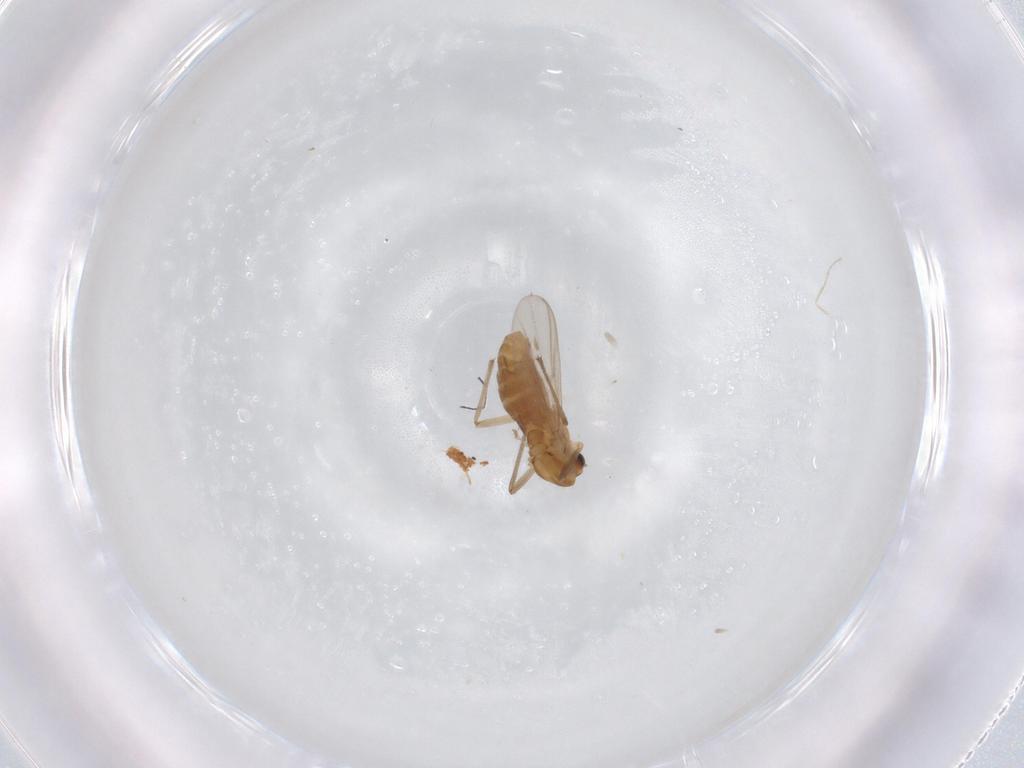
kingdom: Animalia
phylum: Arthropoda
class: Insecta
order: Diptera
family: Chironomidae
